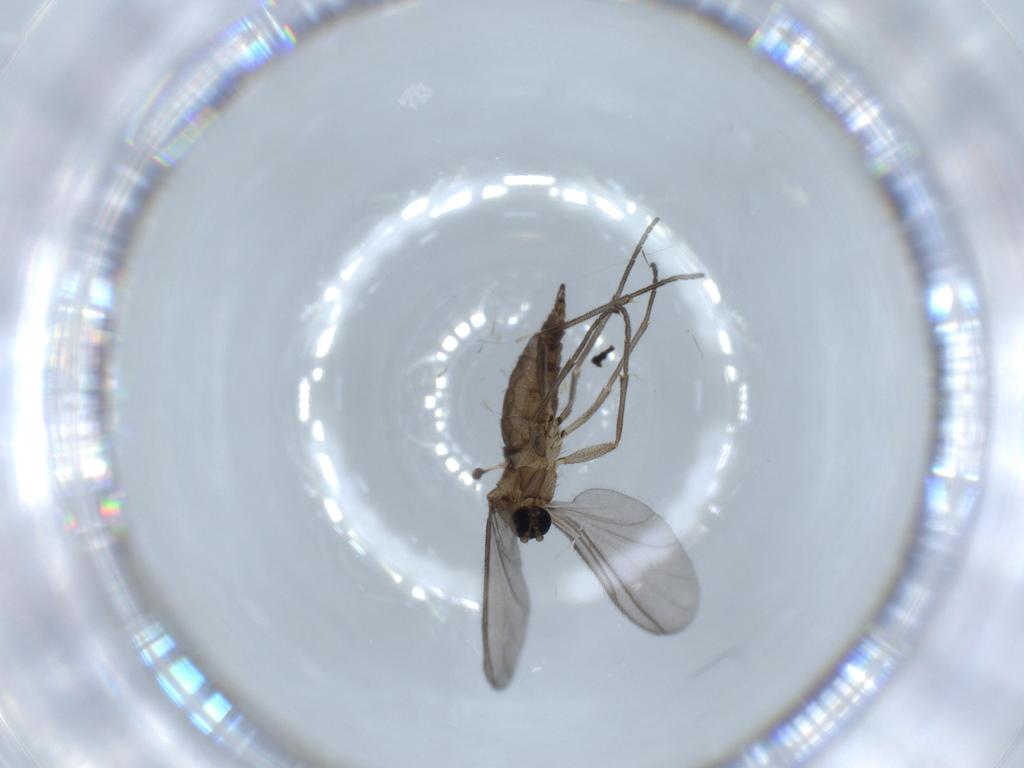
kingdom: Animalia
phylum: Arthropoda
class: Insecta
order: Diptera
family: Sciaridae
